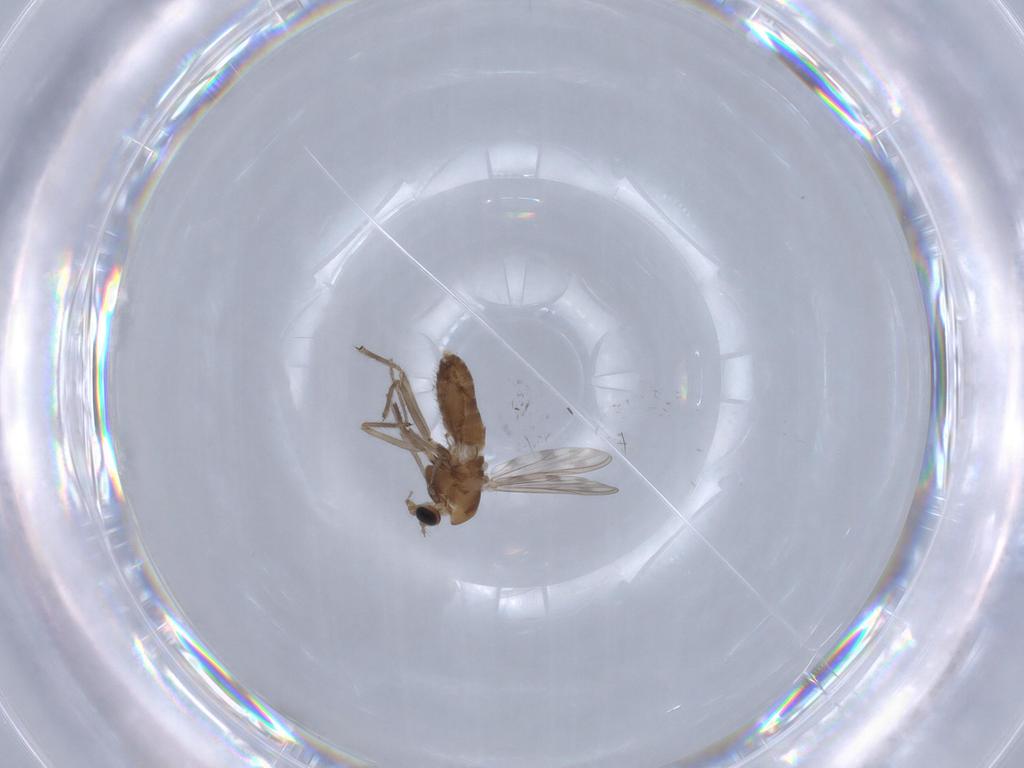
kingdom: Animalia
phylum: Arthropoda
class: Insecta
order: Diptera
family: Chironomidae
